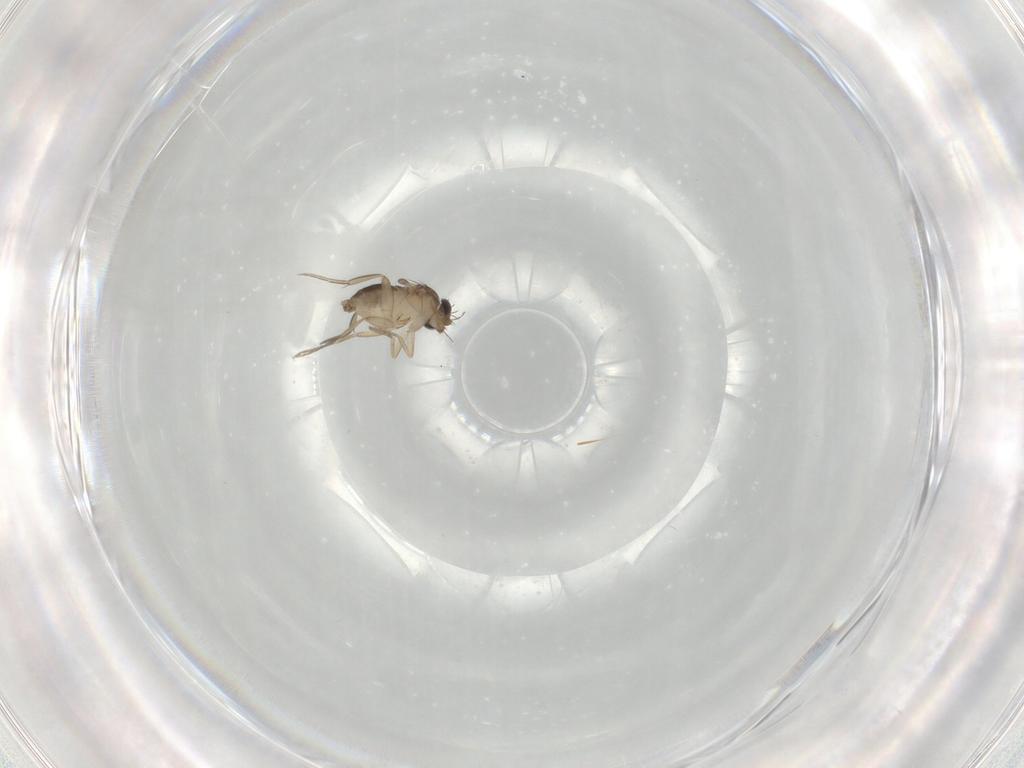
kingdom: Animalia
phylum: Arthropoda
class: Insecta
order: Diptera
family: Phoridae
